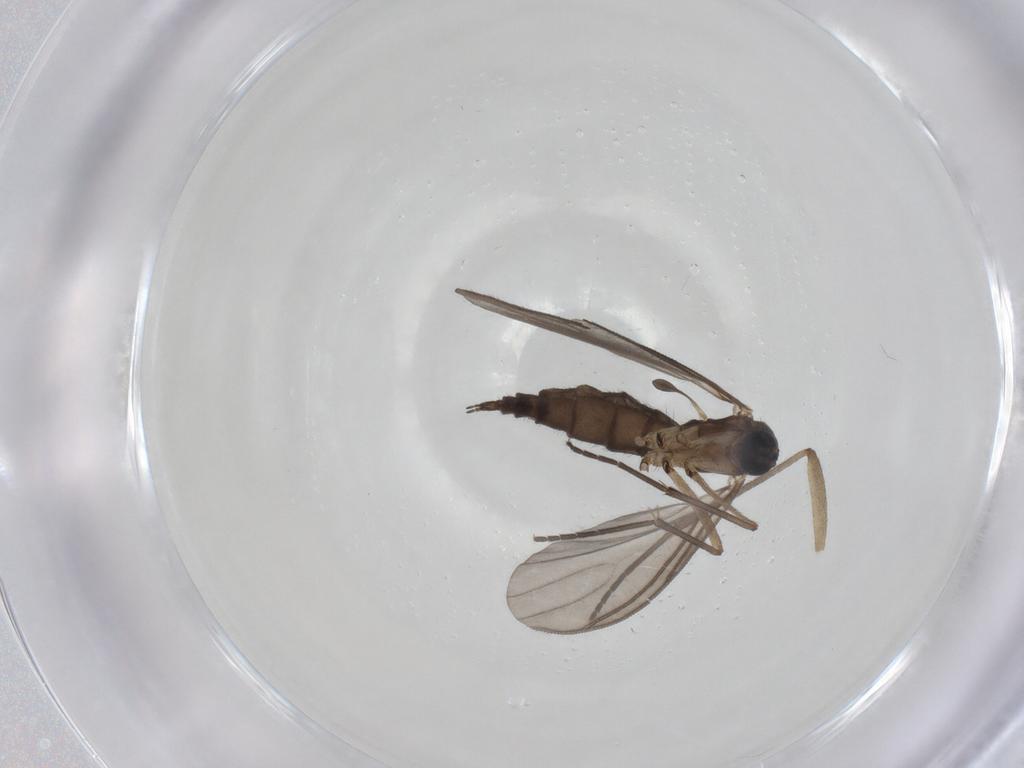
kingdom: Animalia
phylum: Arthropoda
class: Insecta
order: Diptera
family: Sciaridae
